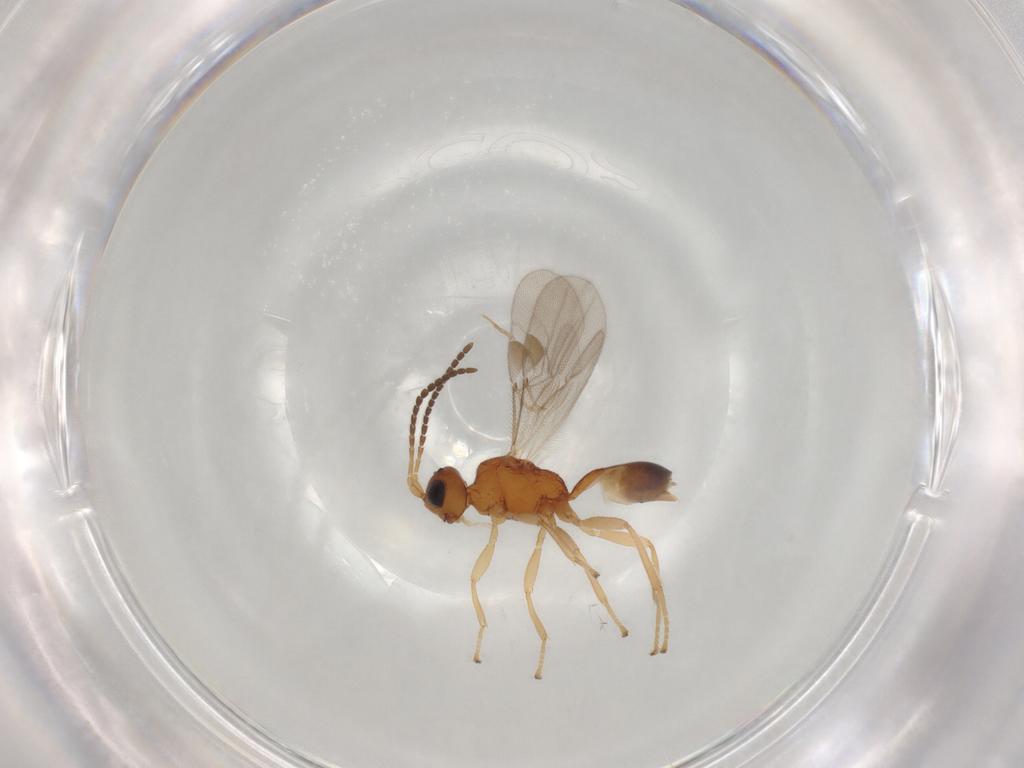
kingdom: Animalia
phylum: Arthropoda
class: Insecta
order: Hymenoptera
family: Braconidae
